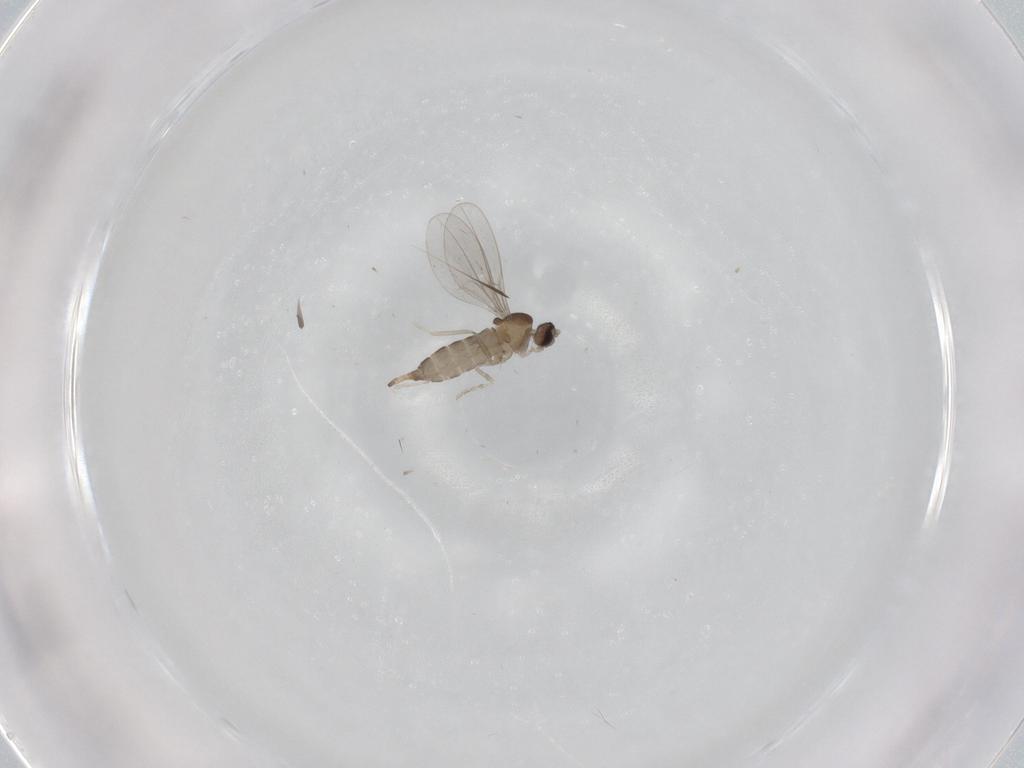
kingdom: Animalia
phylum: Arthropoda
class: Insecta
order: Diptera
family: Cecidomyiidae
